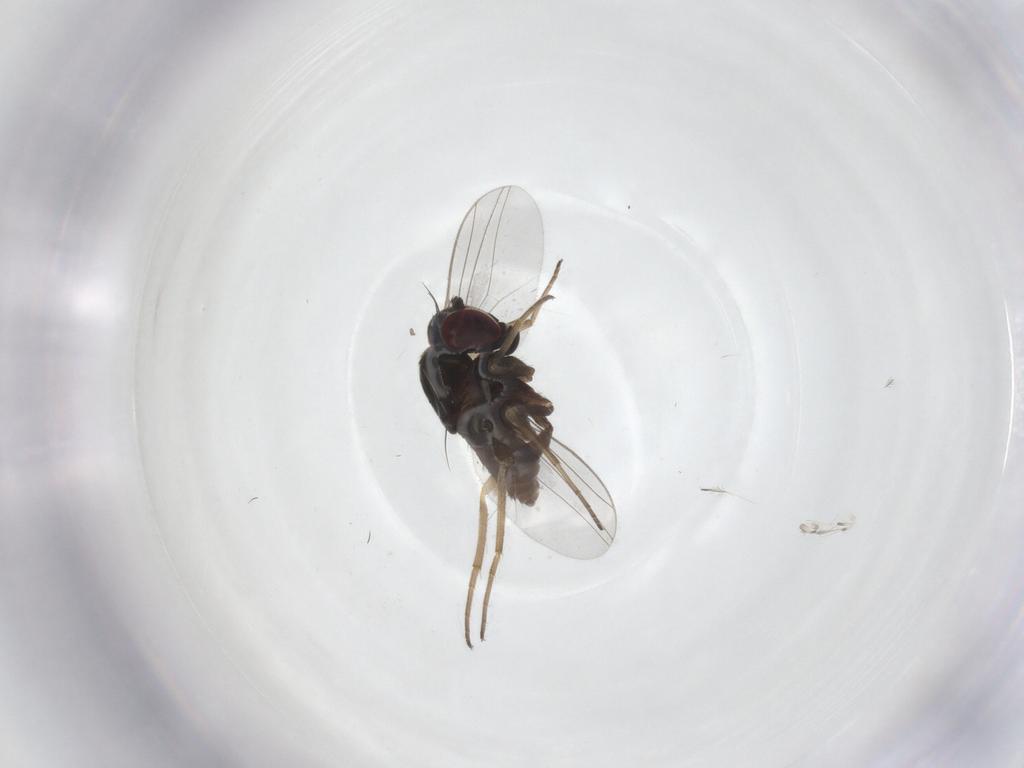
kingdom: Animalia
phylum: Arthropoda
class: Insecta
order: Diptera
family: Dolichopodidae
